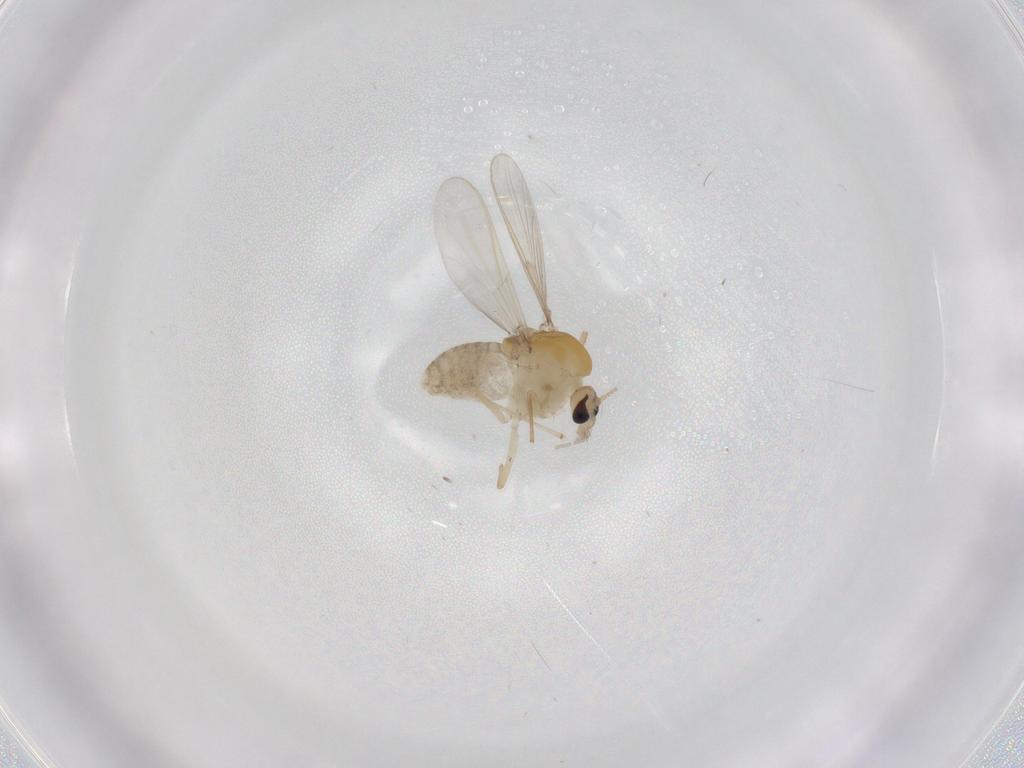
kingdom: Animalia
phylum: Arthropoda
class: Insecta
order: Diptera
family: Chironomidae
